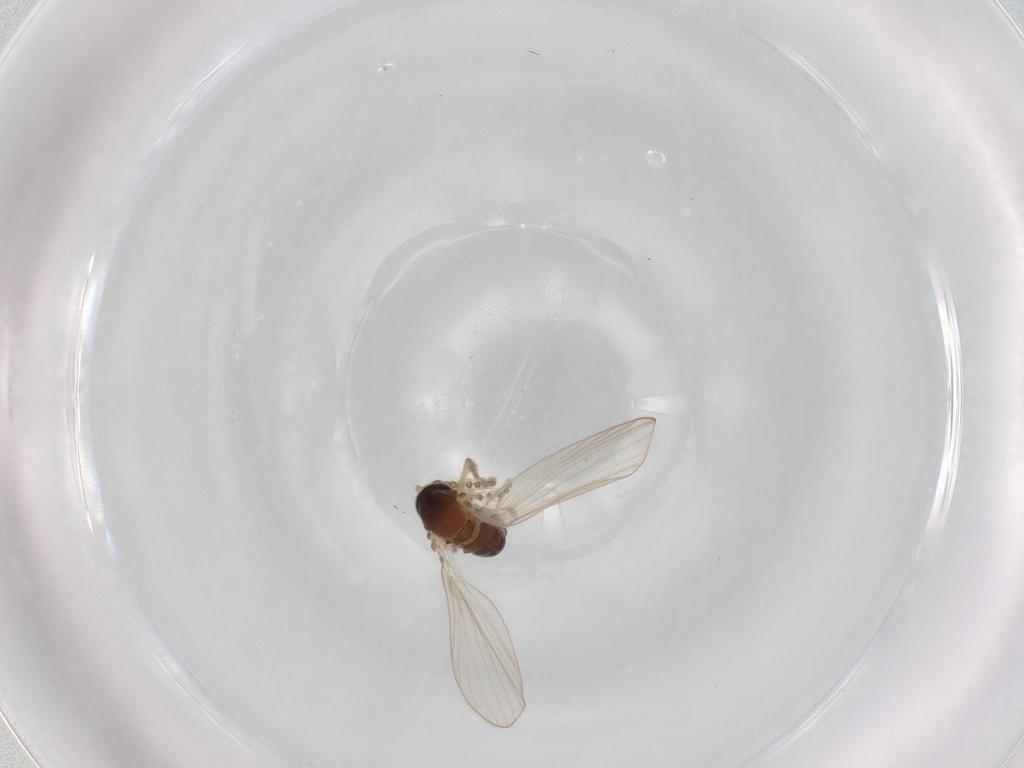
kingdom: Animalia
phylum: Arthropoda
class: Insecta
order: Diptera
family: Psychodidae
